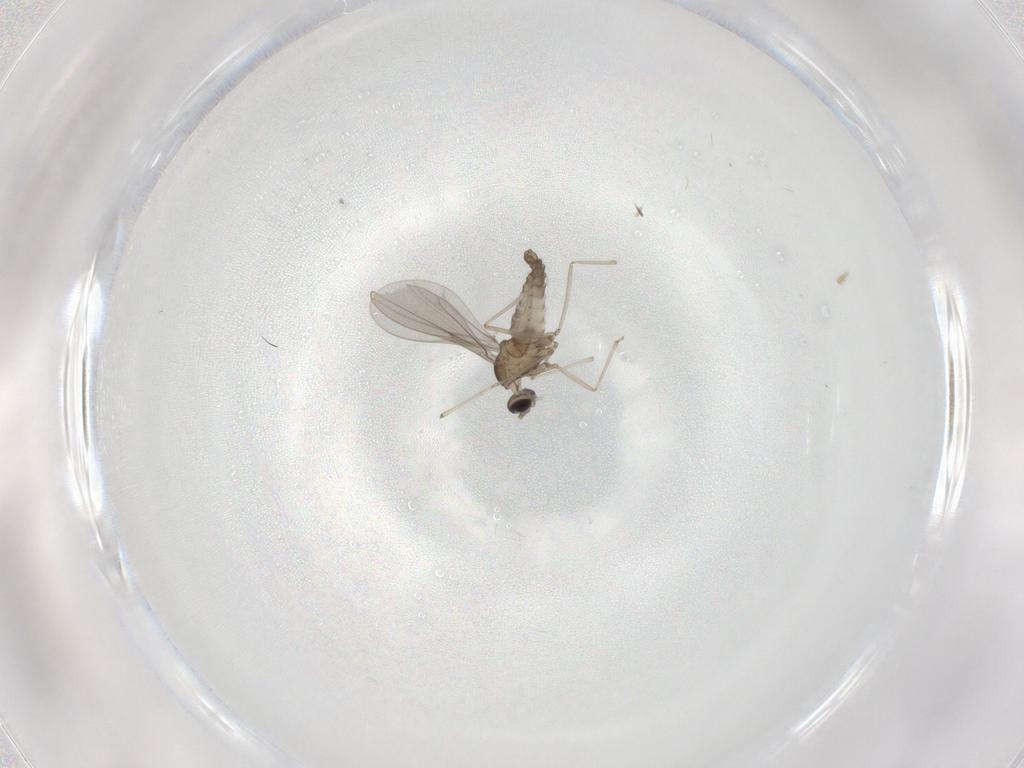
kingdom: Animalia
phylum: Arthropoda
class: Insecta
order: Diptera
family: Cecidomyiidae
